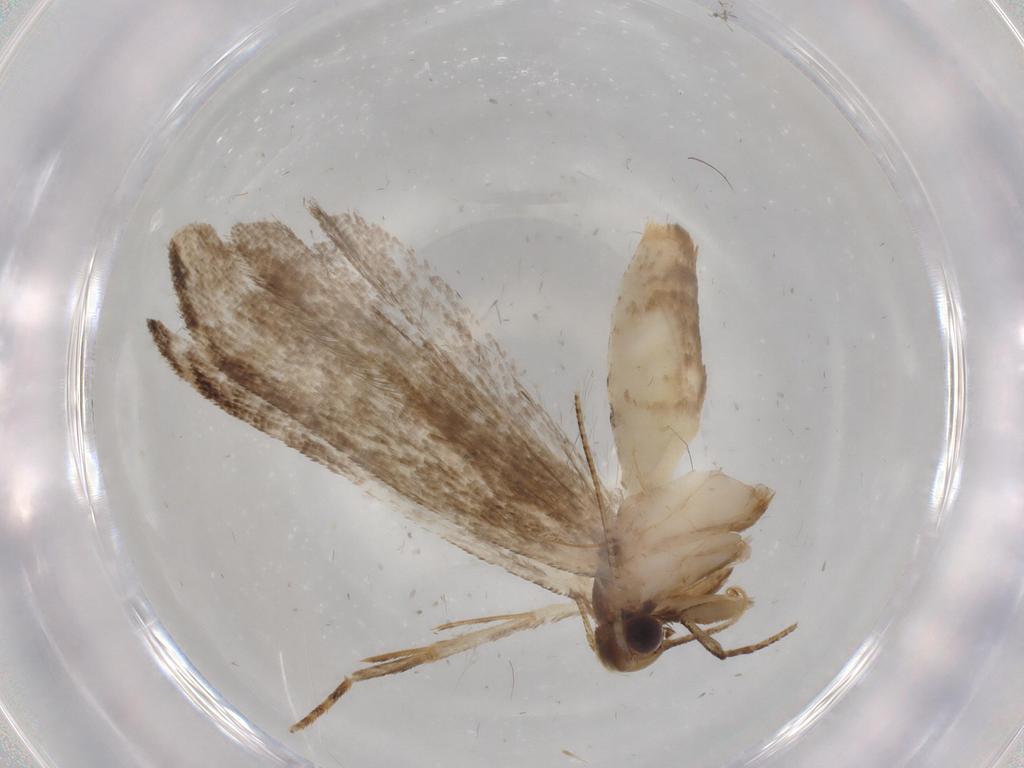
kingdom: Animalia
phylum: Arthropoda
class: Insecta
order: Lepidoptera
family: Gelechiidae
